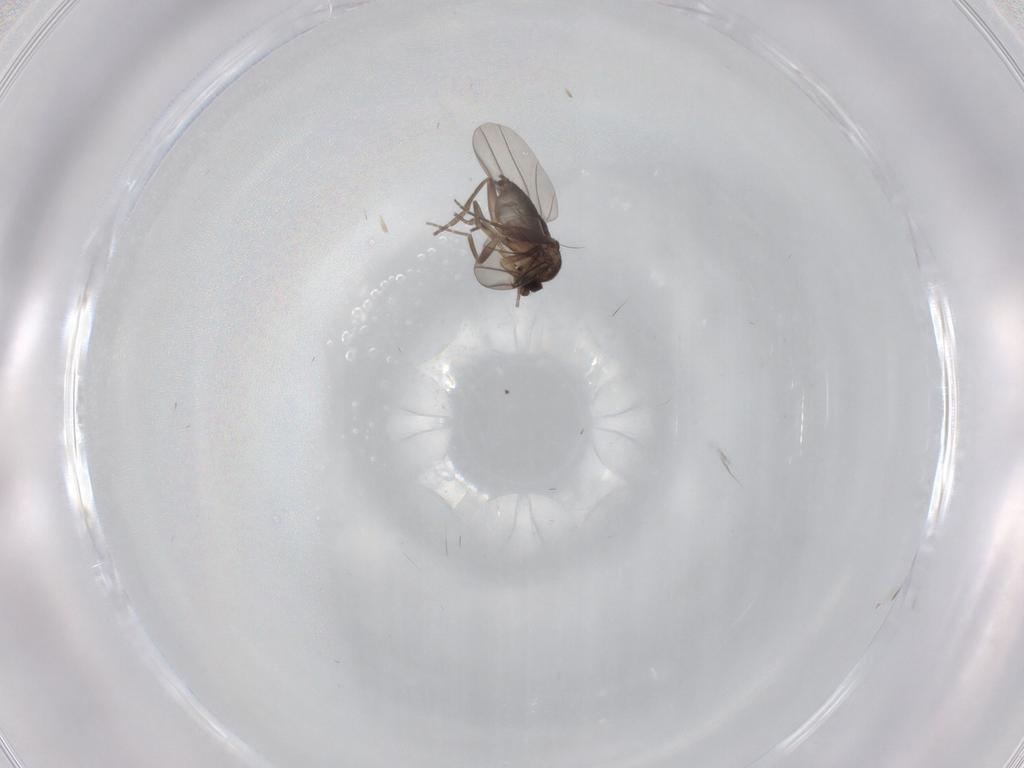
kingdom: Animalia
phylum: Arthropoda
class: Insecta
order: Diptera
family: Phoridae
